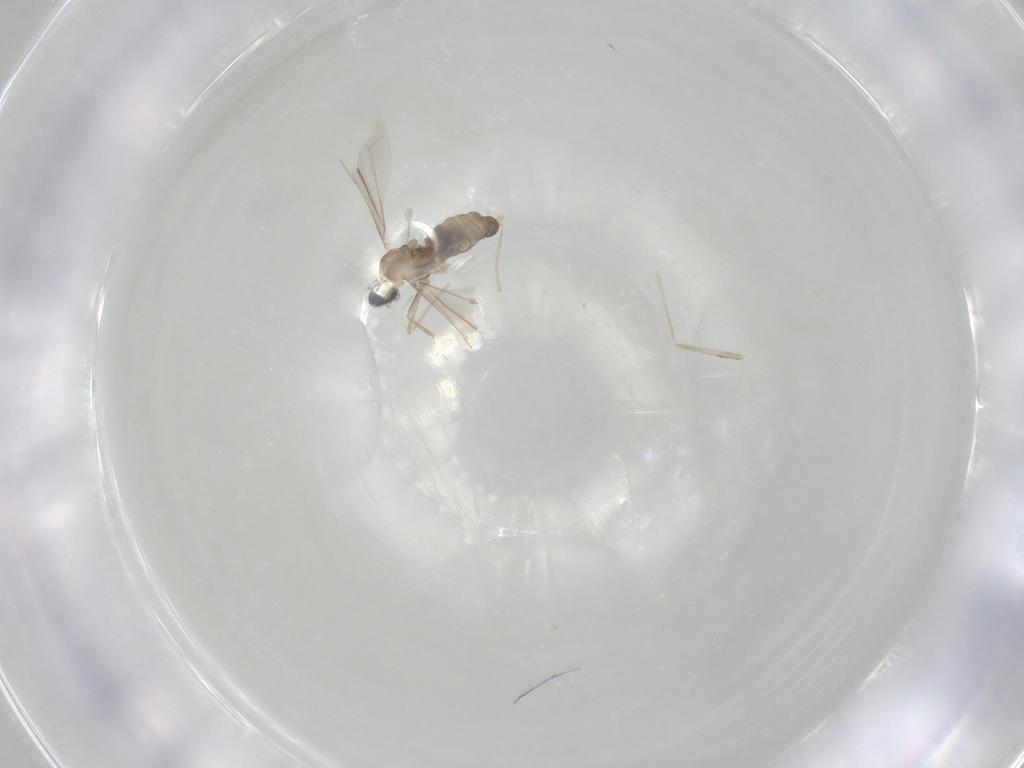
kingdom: Animalia
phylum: Arthropoda
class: Insecta
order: Diptera
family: Cecidomyiidae
